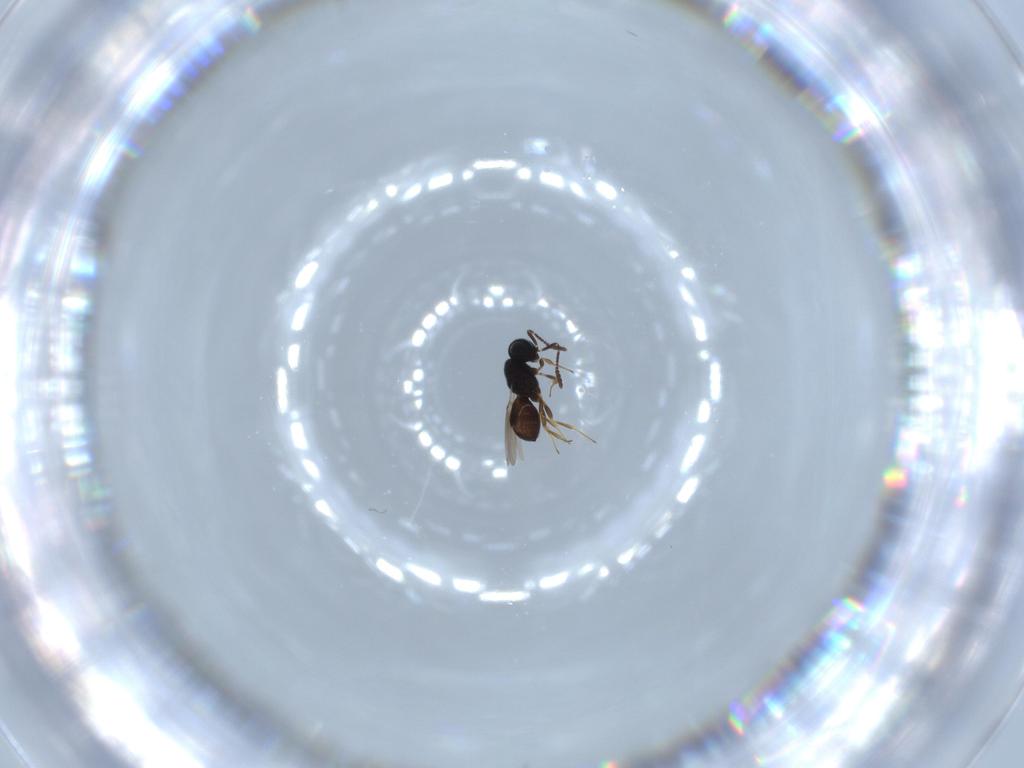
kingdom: Animalia
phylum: Arthropoda
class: Insecta
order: Hymenoptera
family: Scelionidae
